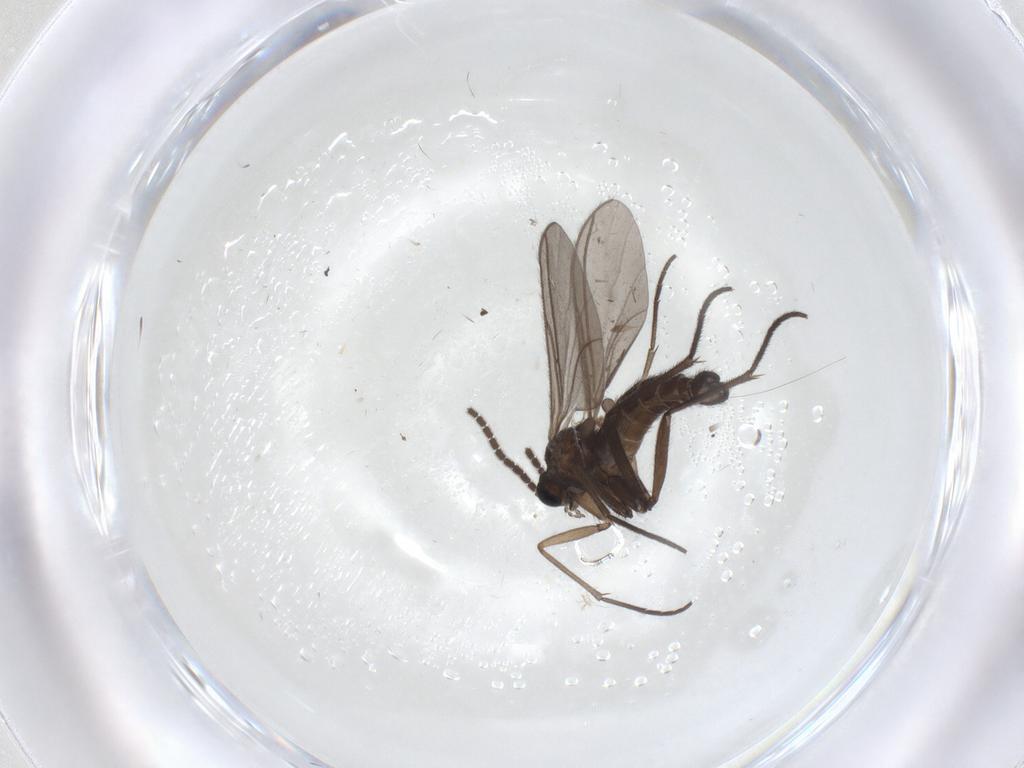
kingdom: Animalia
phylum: Arthropoda
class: Insecta
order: Diptera
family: Sciaridae
